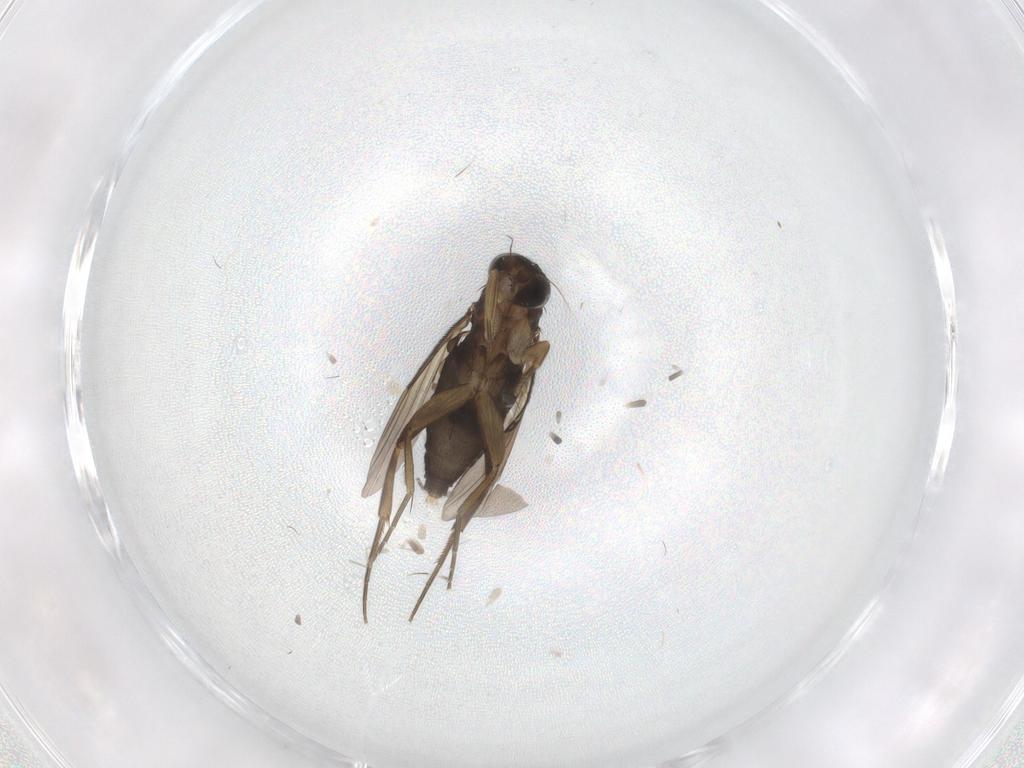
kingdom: Animalia
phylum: Arthropoda
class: Insecta
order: Diptera
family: Phoridae
